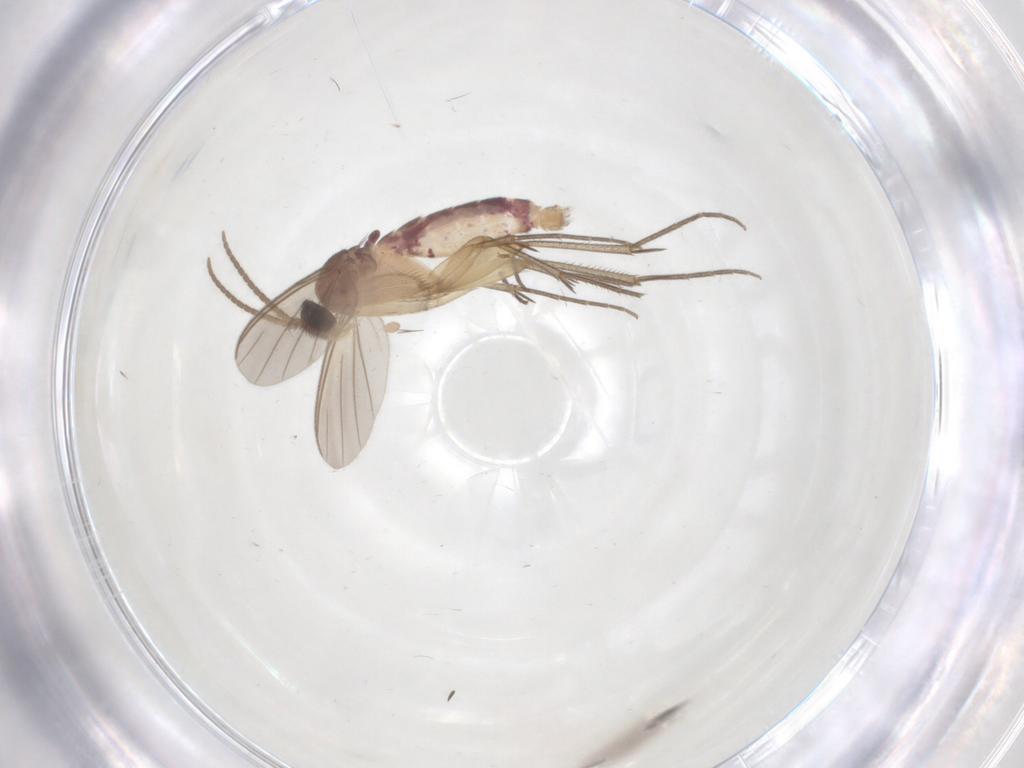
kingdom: Animalia
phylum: Arthropoda
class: Insecta
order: Diptera
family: Mycetophilidae
